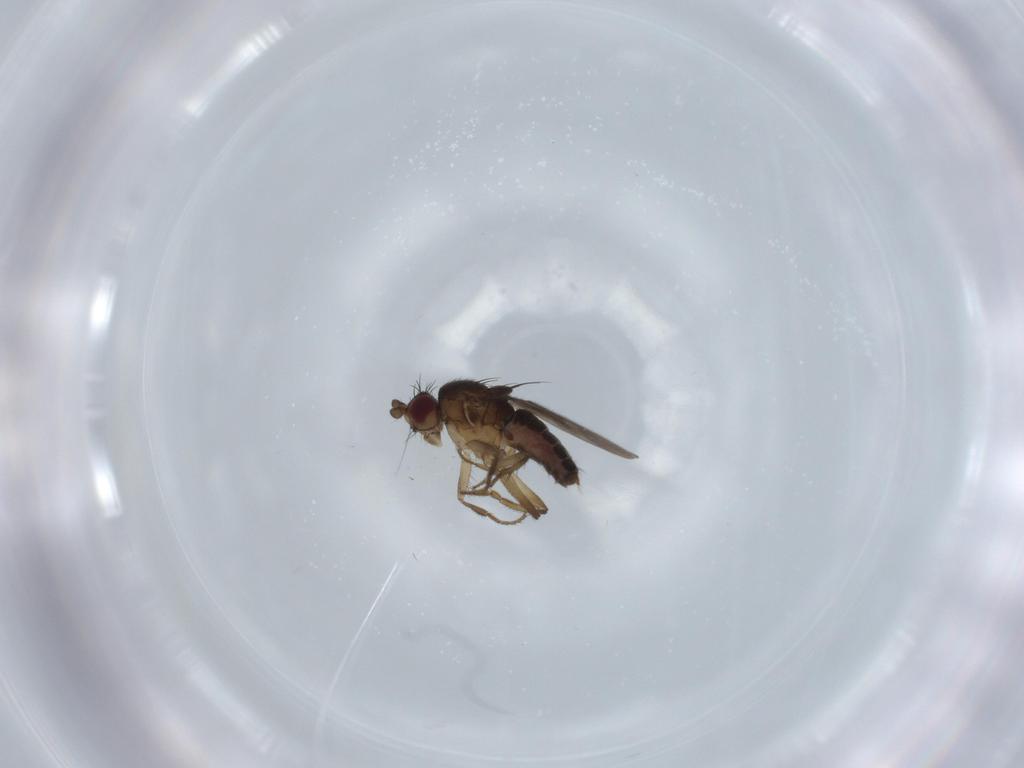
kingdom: Animalia
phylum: Arthropoda
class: Insecta
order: Diptera
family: Sphaeroceridae
